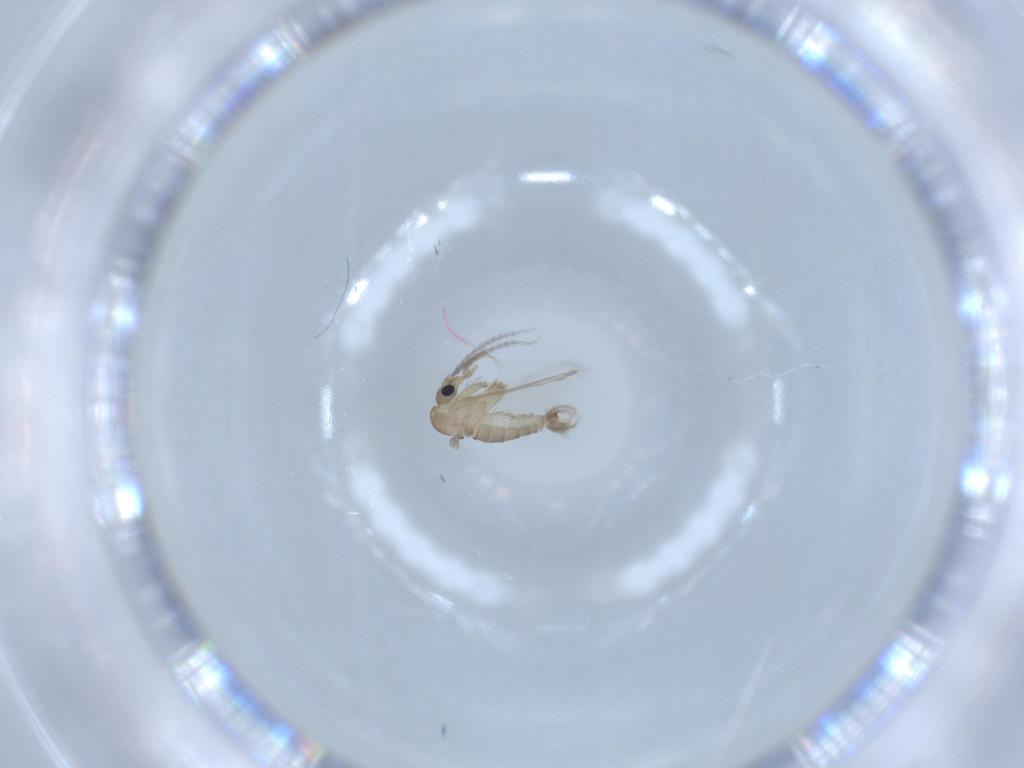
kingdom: Animalia
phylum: Arthropoda
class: Insecta
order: Diptera
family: Psychodidae
